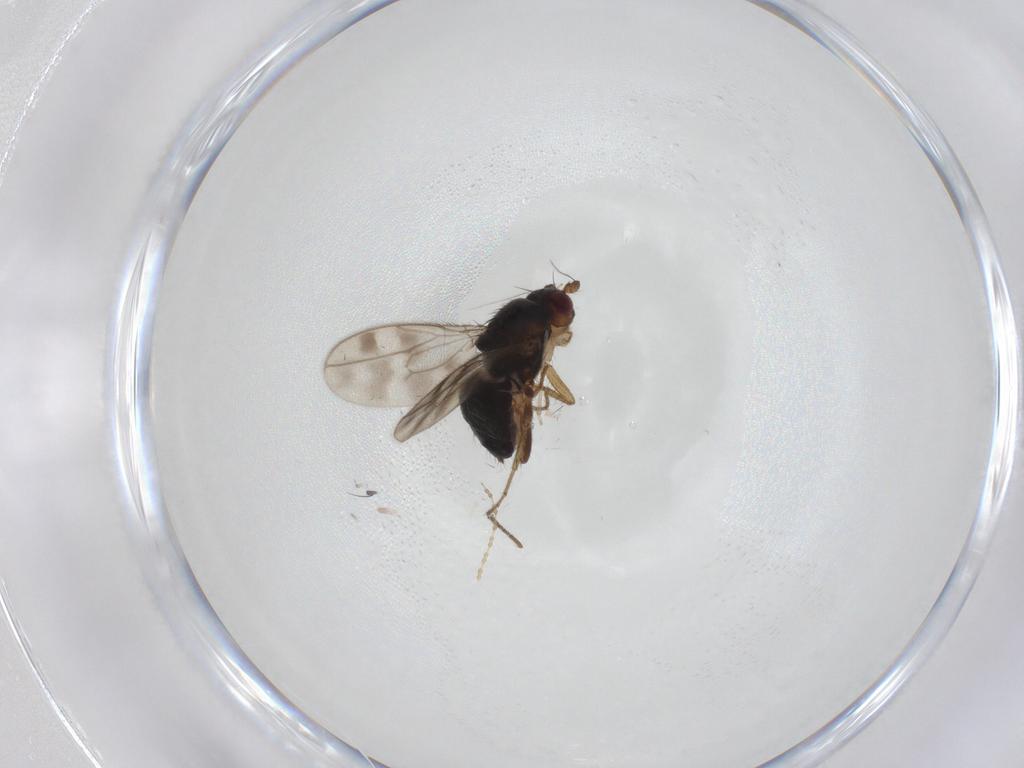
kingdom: Animalia
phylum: Arthropoda
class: Insecta
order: Diptera
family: Sphaeroceridae
